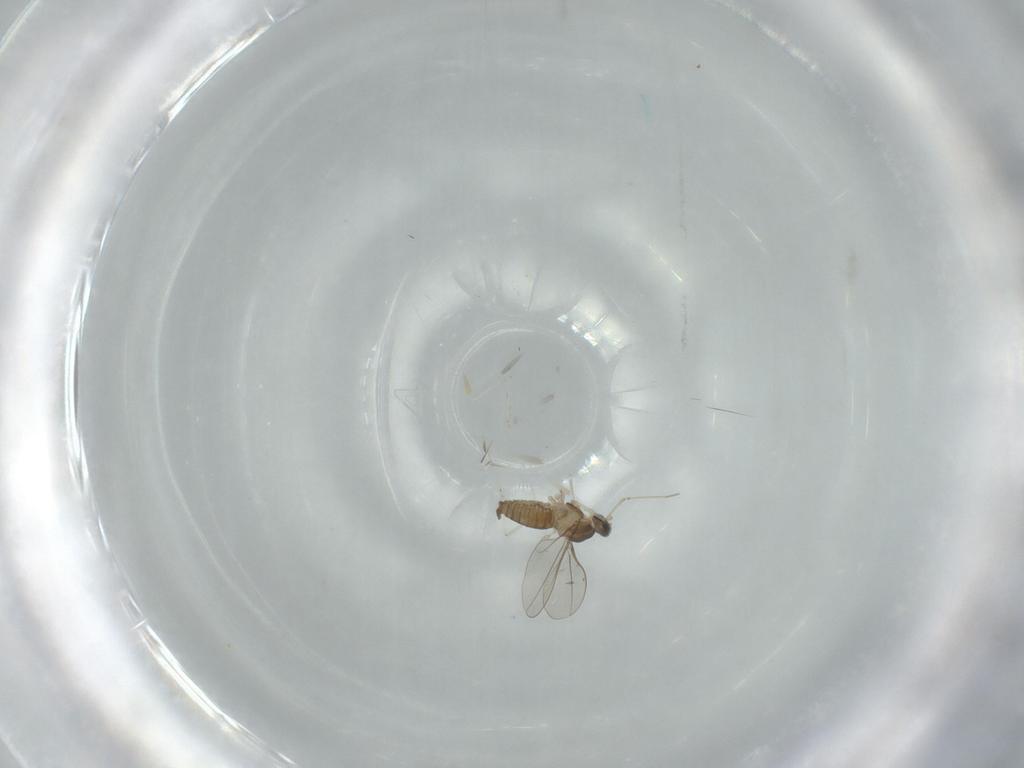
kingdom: Animalia
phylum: Arthropoda
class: Insecta
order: Diptera
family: Cecidomyiidae
